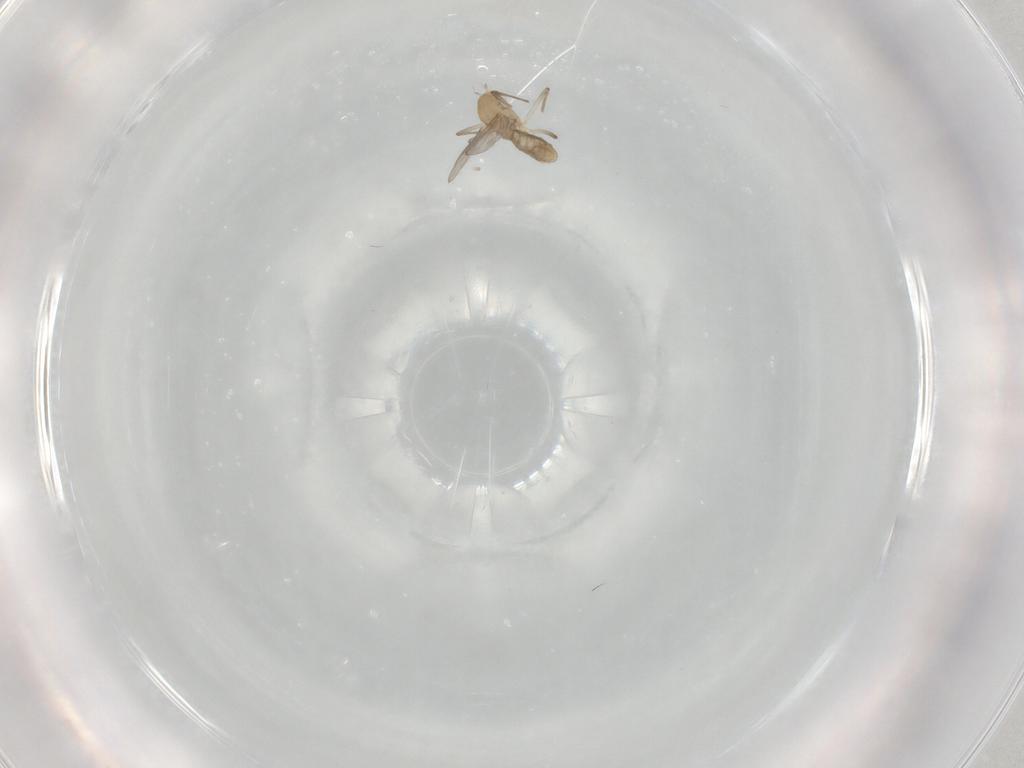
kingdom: Animalia
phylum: Arthropoda
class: Insecta
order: Diptera
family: Chironomidae
